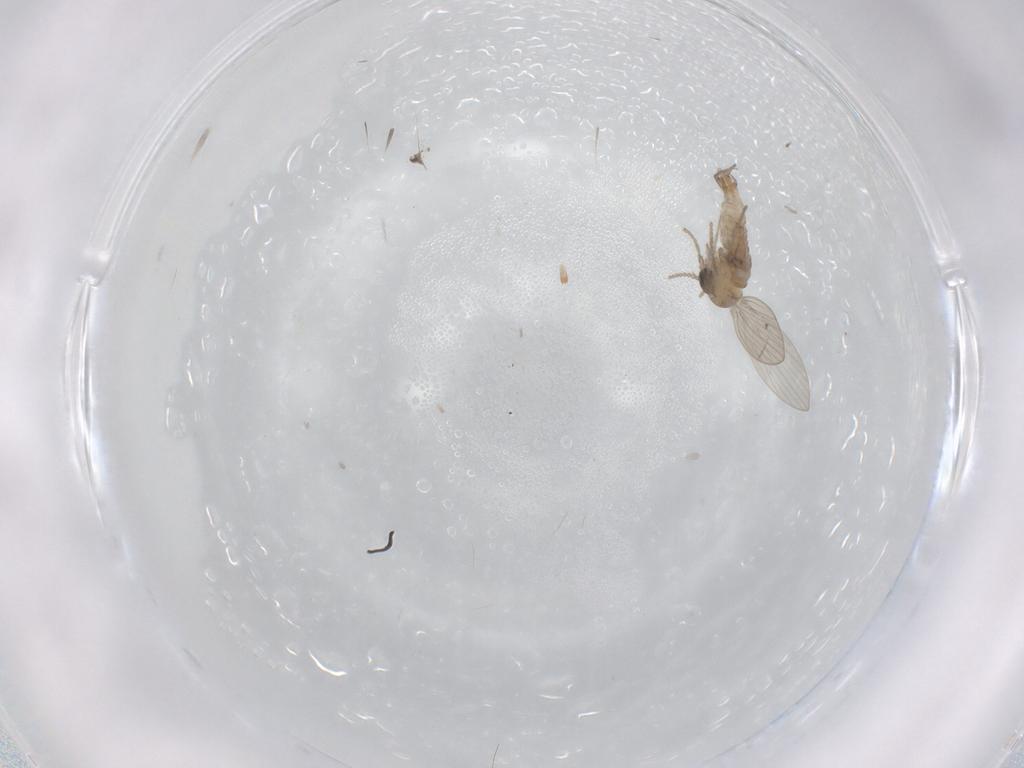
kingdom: Animalia
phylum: Arthropoda
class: Insecta
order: Diptera
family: Psychodidae
